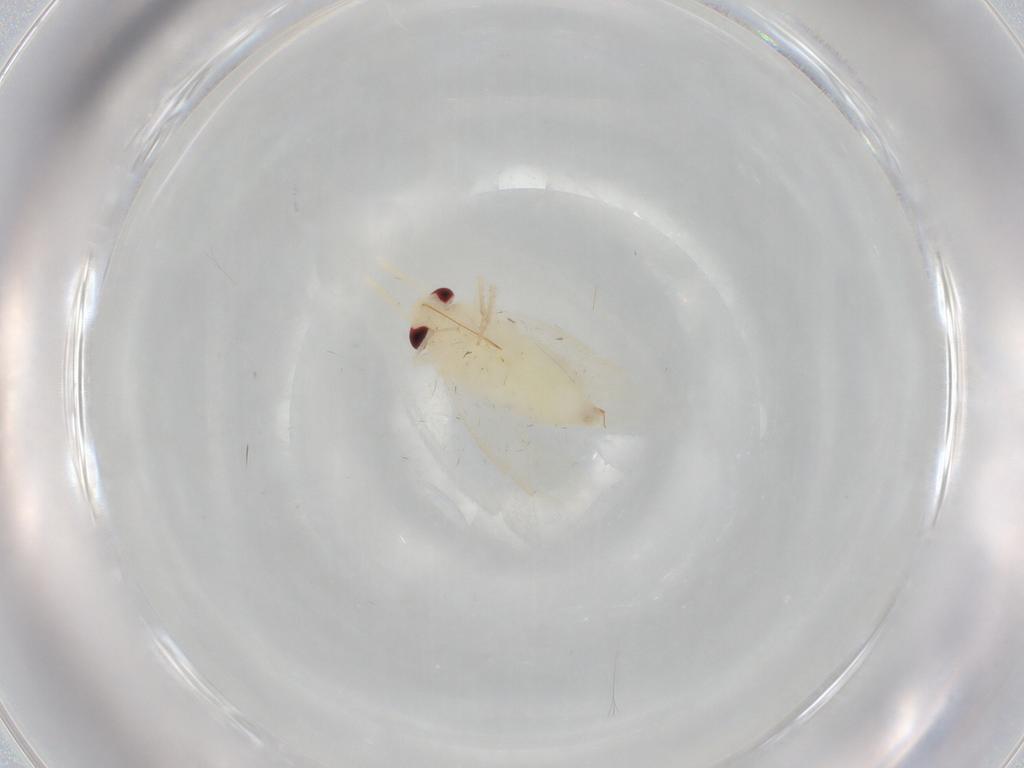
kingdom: Animalia
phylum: Arthropoda
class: Insecta
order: Hemiptera
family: Miridae
